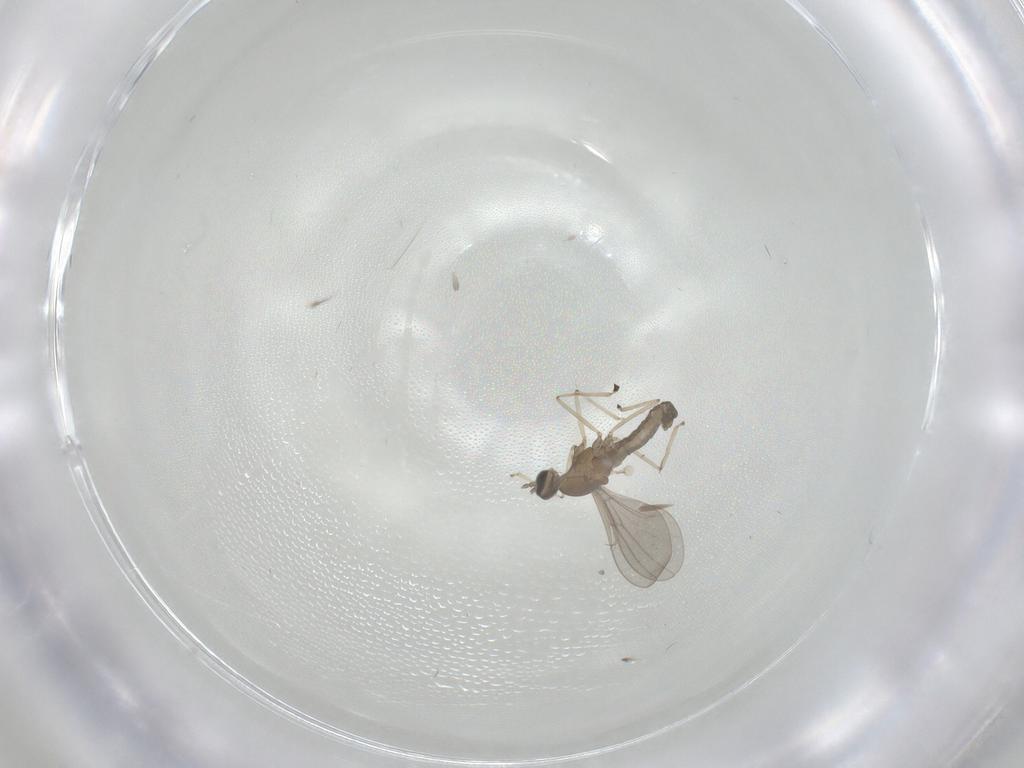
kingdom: Animalia
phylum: Arthropoda
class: Insecta
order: Diptera
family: Cecidomyiidae
